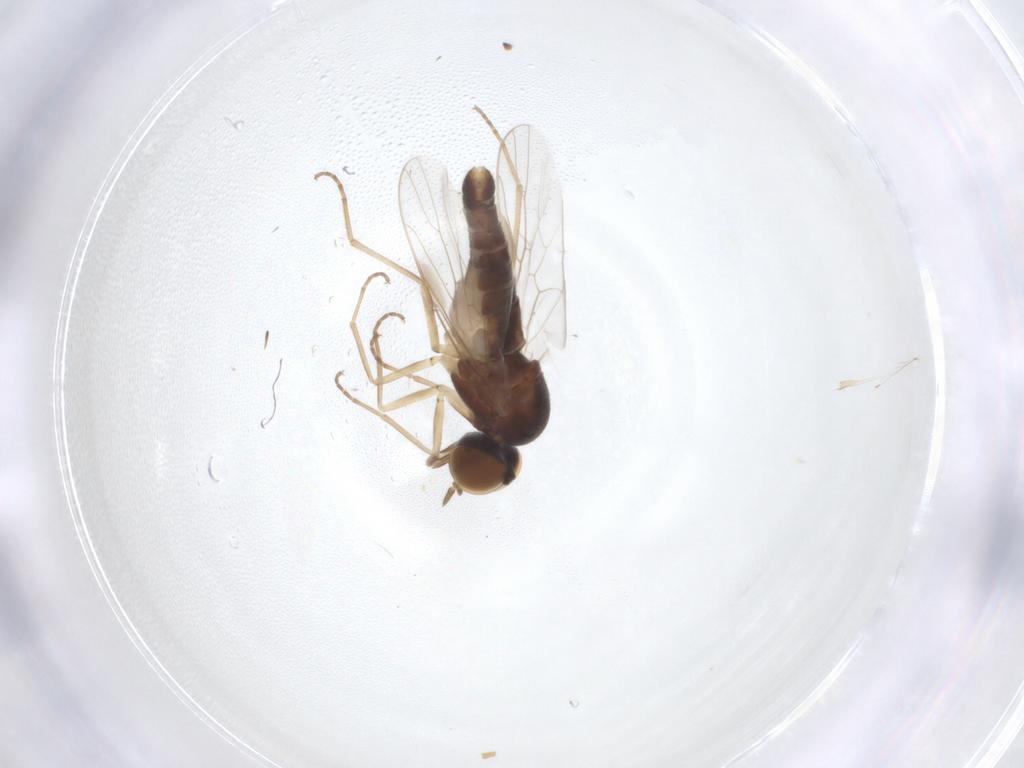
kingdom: Animalia
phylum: Arthropoda
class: Insecta
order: Diptera
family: Scenopinidae
